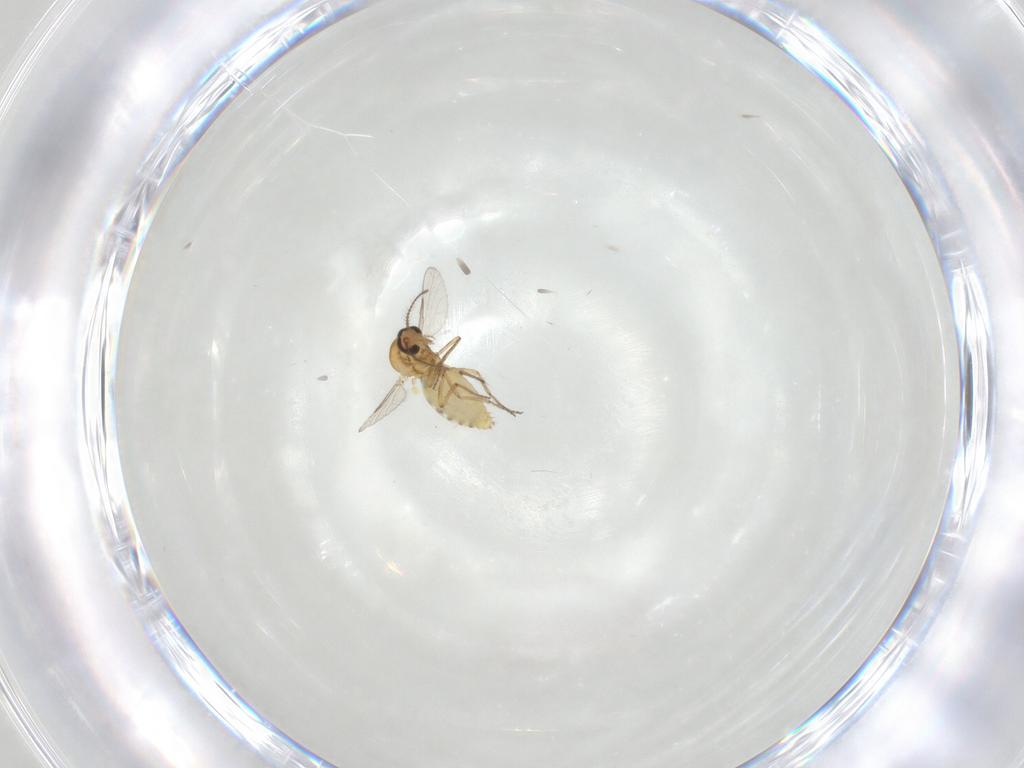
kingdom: Animalia
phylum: Arthropoda
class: Insecta
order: Diptera
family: Ceratopogonidae
